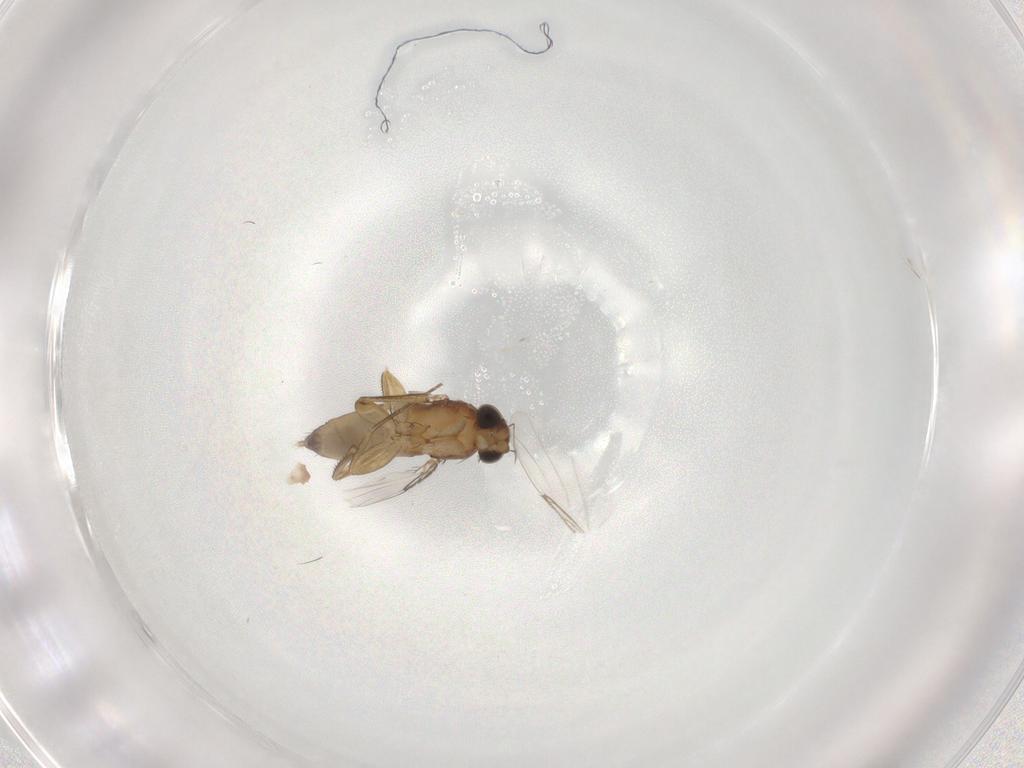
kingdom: Animalia
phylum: Arthropoda
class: Insecta
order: Diptera
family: Phoridae
